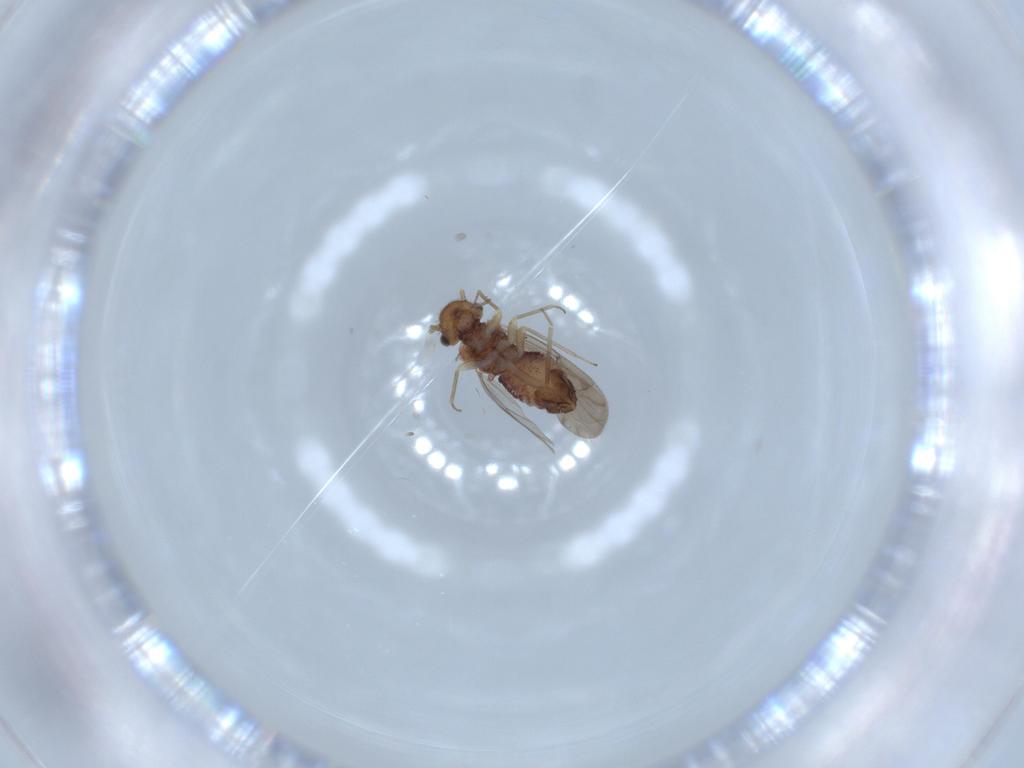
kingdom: Animalia
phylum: Arthropoda
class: Insecta
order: Psocodea
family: Ectopsocidae
